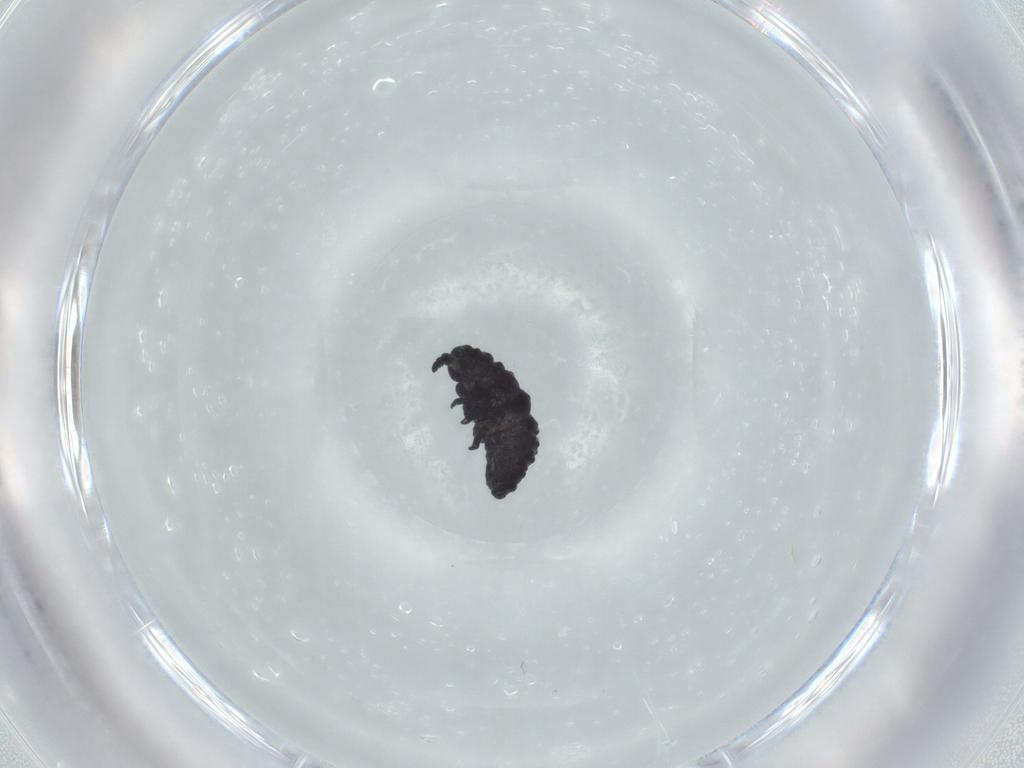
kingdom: Animalia
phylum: Arthropoda
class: Collembola
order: Poduromorpha
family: Neanuridae
